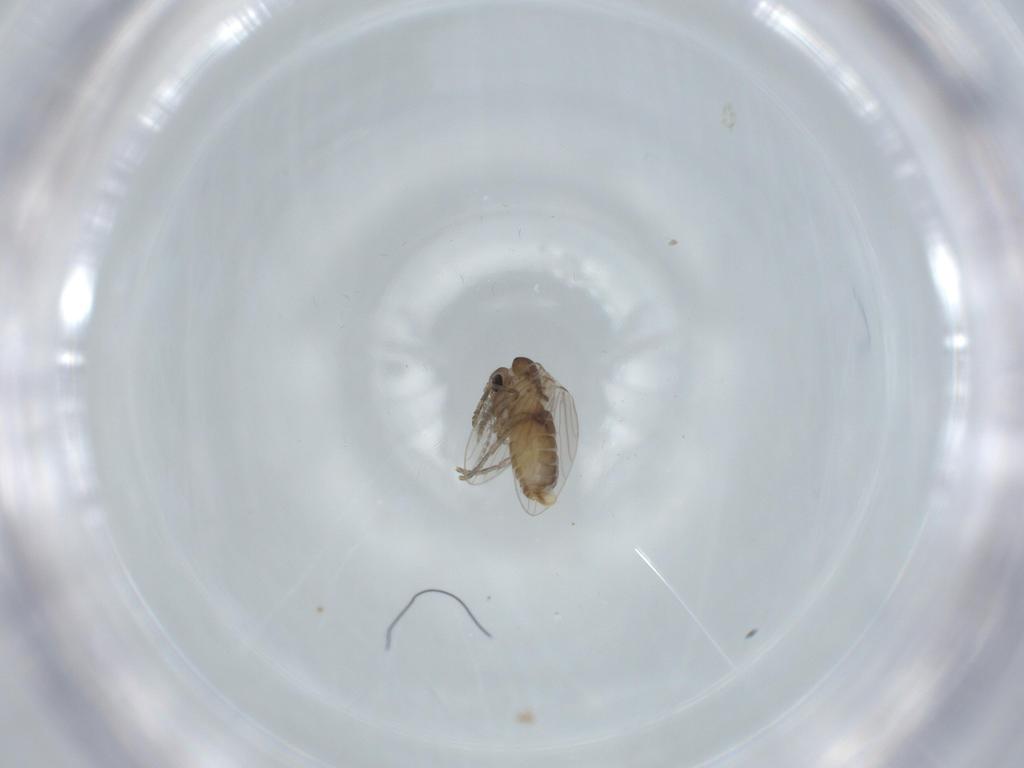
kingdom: Animalia
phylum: Arthropoda
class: Insecta
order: Diptera
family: Psychodidae
